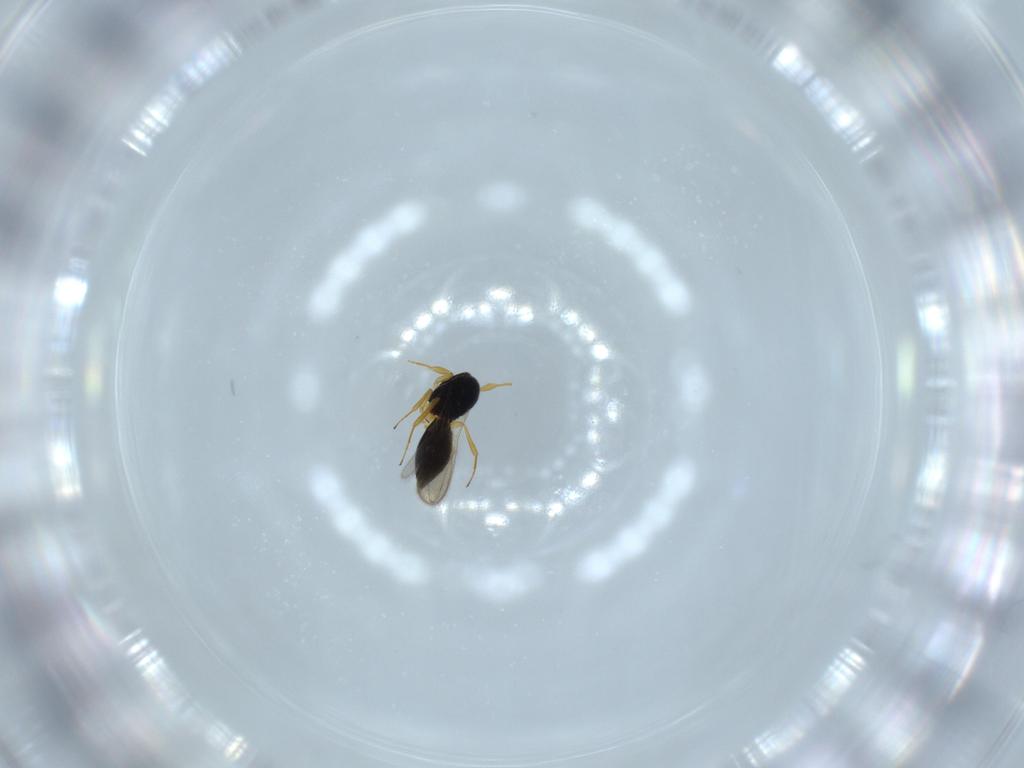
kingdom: Animalia
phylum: Arthropoda
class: Insecta
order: Hymenoptera
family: Scelionidae
